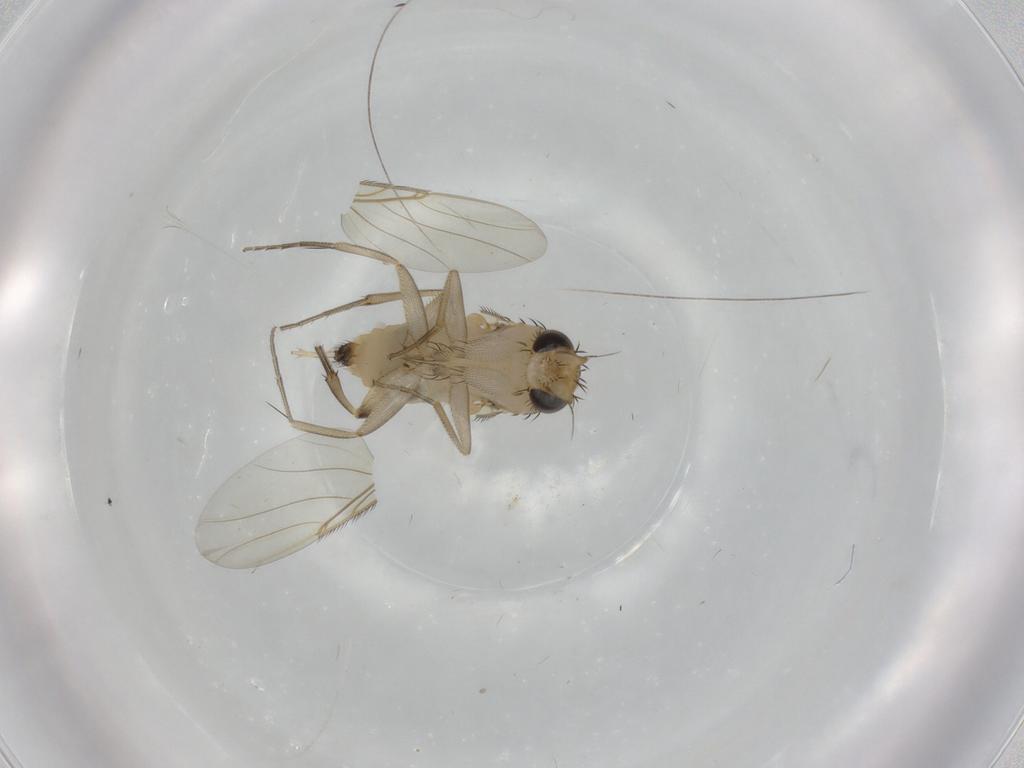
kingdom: Animalia
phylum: Arthropoda
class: Insecta
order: Diptera
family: Phoridae
